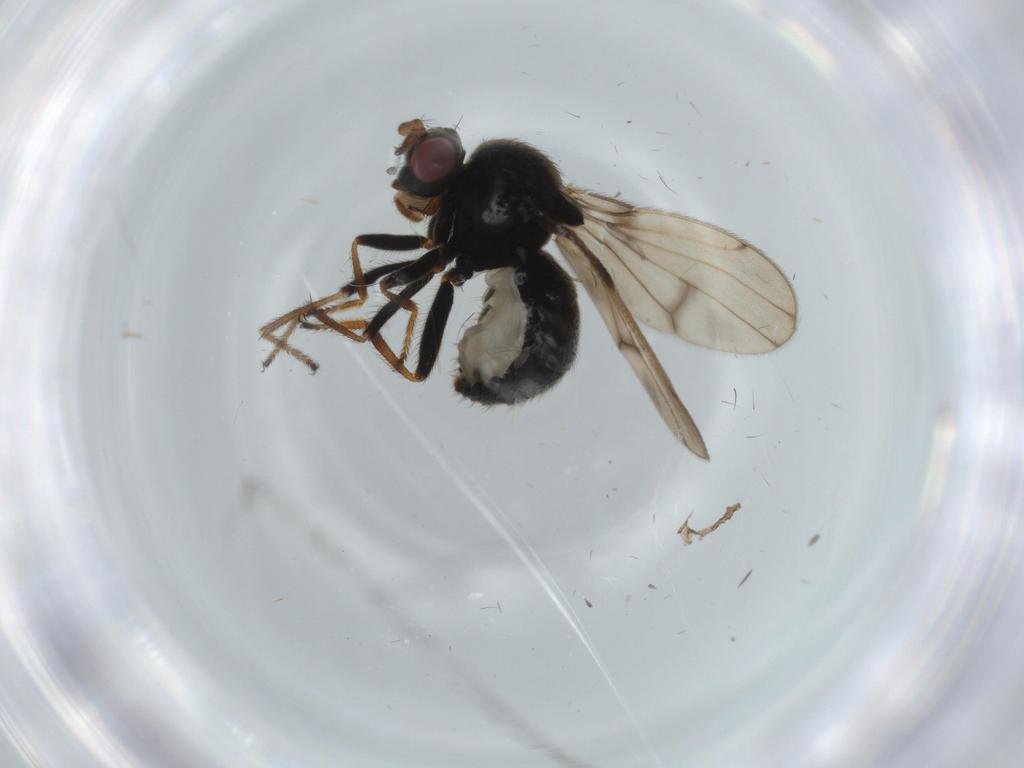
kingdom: Animalia
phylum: Arthropoda
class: Insecta
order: Diptera
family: Ephydridae
